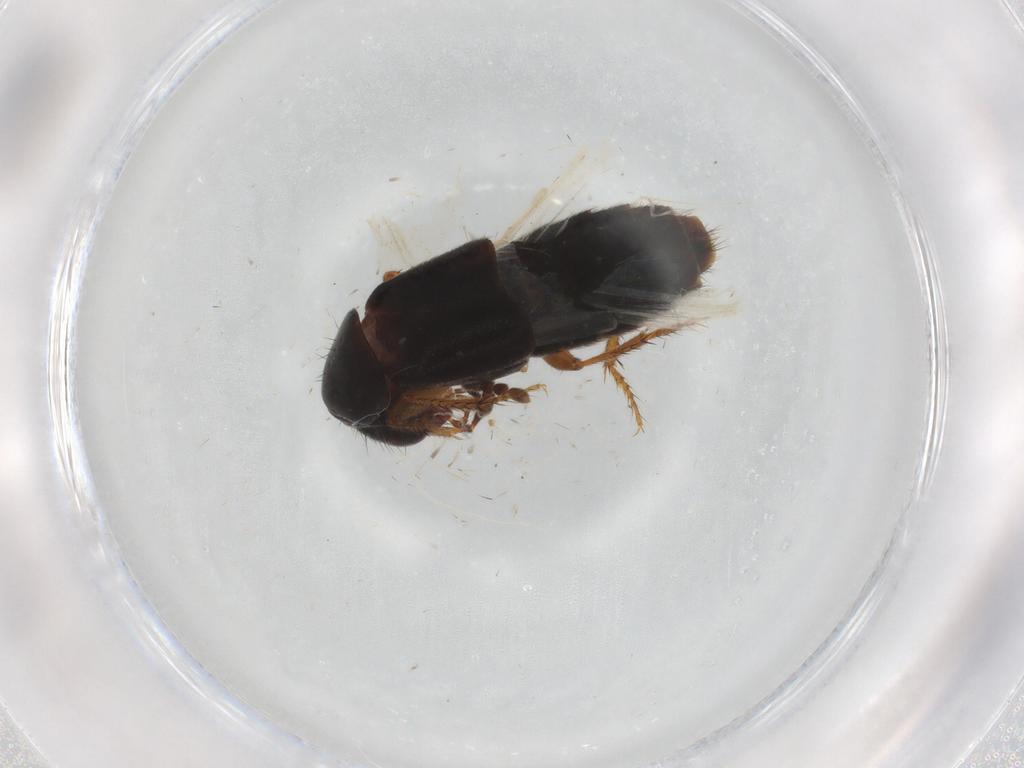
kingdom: Animalia
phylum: Arthropoda
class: Insecta
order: Coleoptera
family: Staphylinidae
